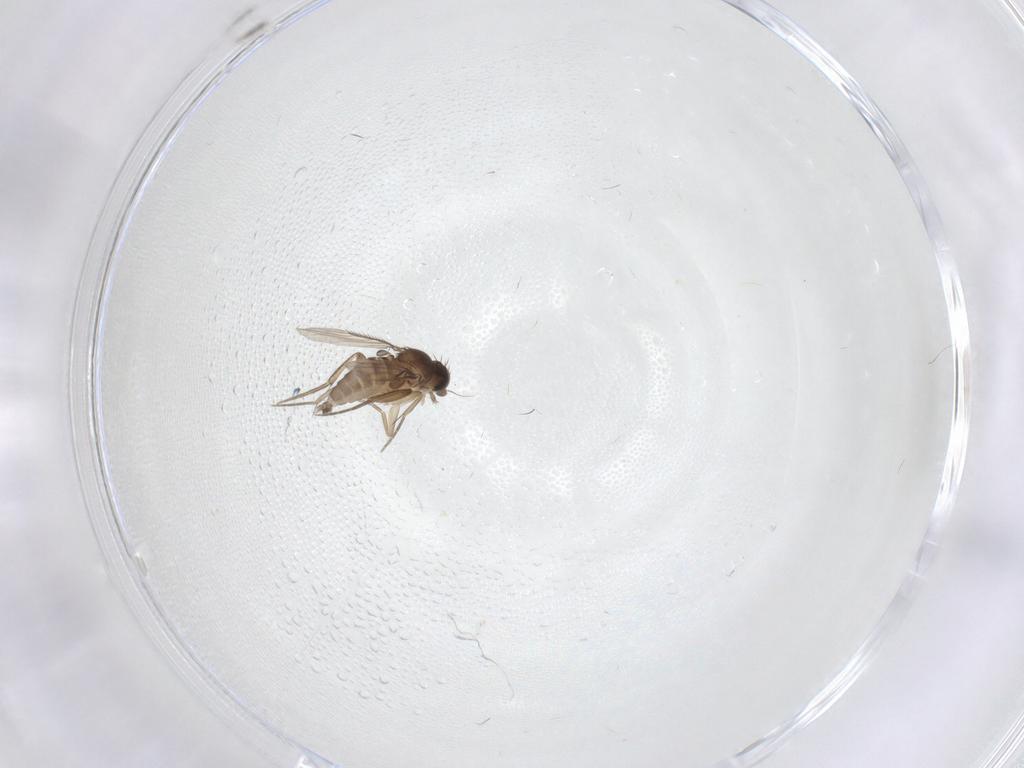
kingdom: Animalia
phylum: Arthropoda
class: Insecta
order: Diptera
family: Phoridae
